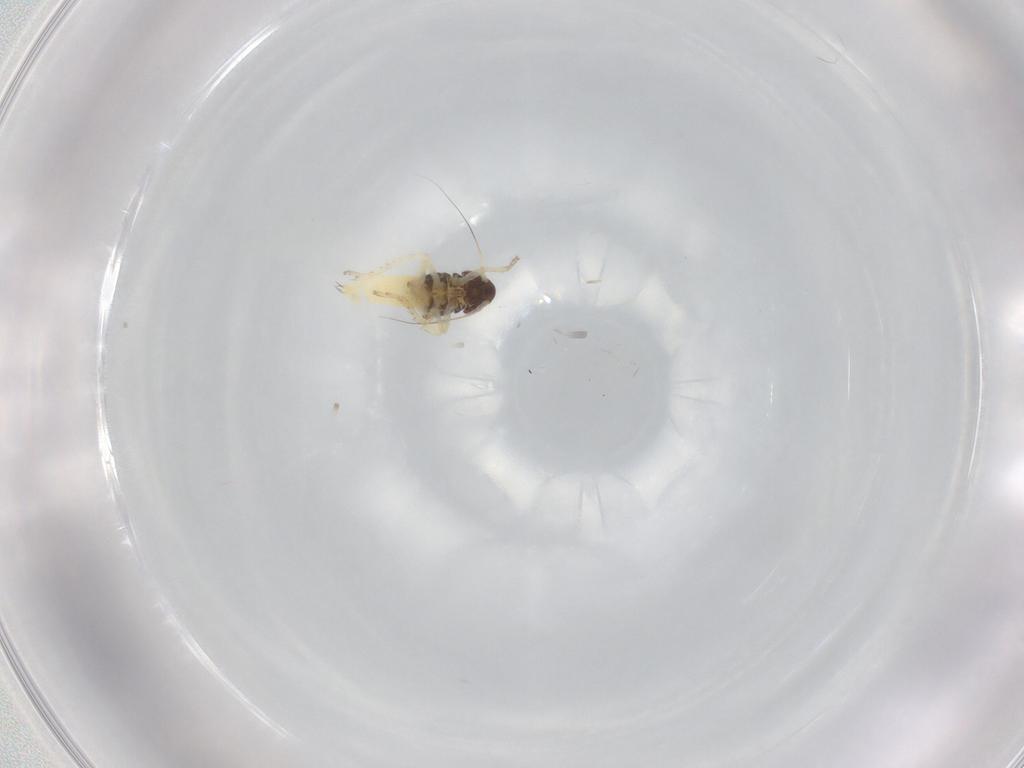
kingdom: Animalia
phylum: Arthropoda
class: Insecta
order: Hemiptera
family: Cicadellidae
